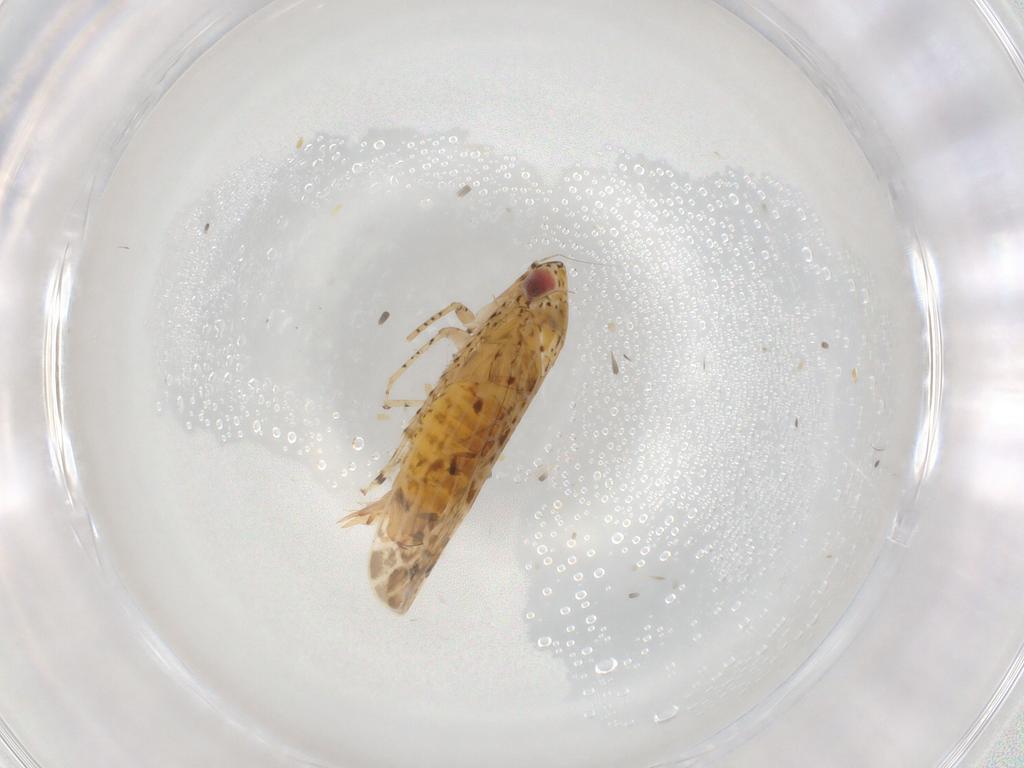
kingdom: Animalia
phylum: Arthropoda
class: Insecta
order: Hemiptera
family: Cicadellidae
